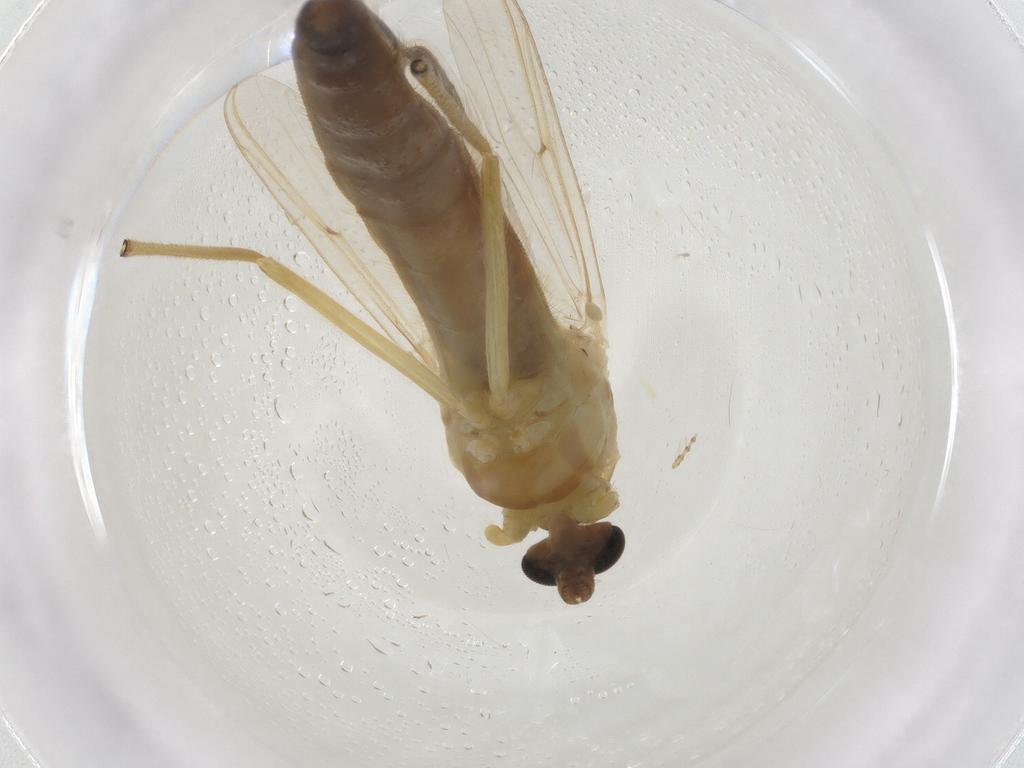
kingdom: Animalia
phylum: Arthropoda
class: Insecta
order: Diptera
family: Chironomidae
